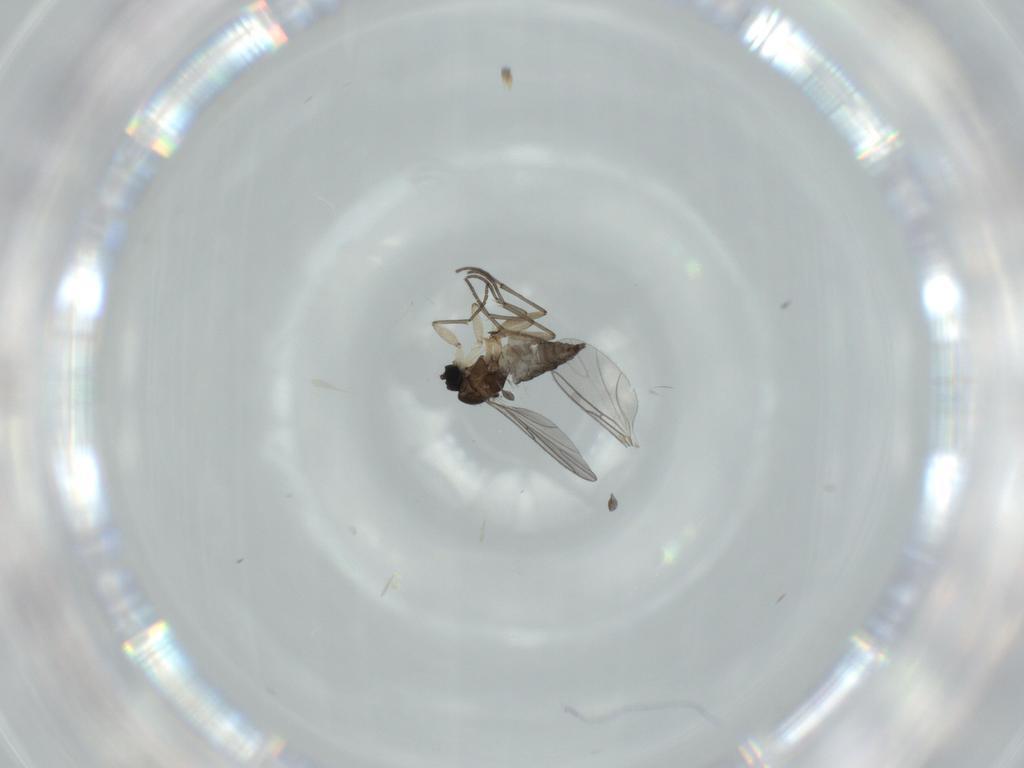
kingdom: Animalia
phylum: Arthropoda
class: Insecta
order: Diptera
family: Sciaridae
